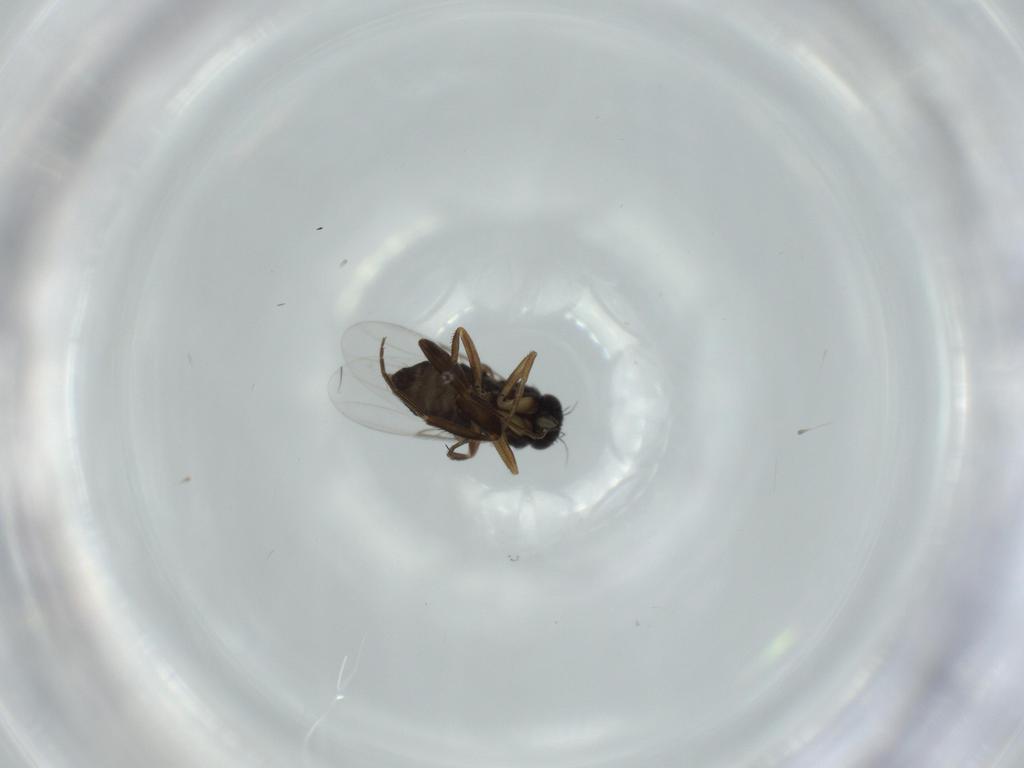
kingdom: Animalia
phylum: Arthropoda
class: Insecta
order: Diptera
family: Phoridae
